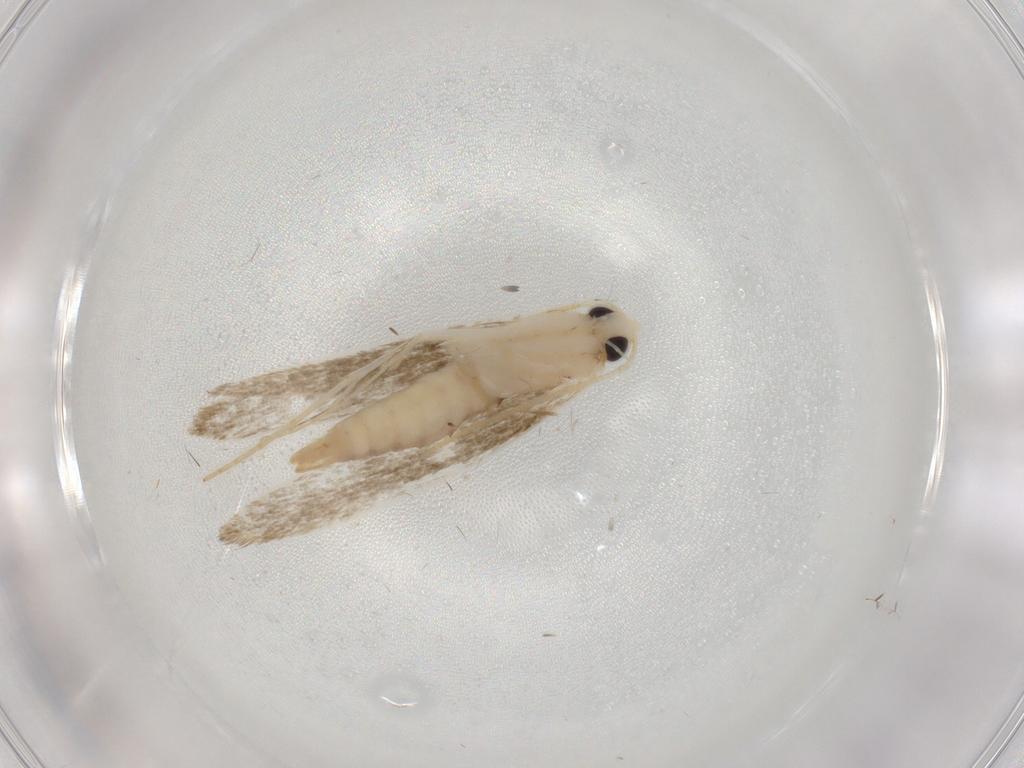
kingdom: Animalia
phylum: Arthropoda
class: Insecta
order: Lepidoptera
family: Lyonetiidae
